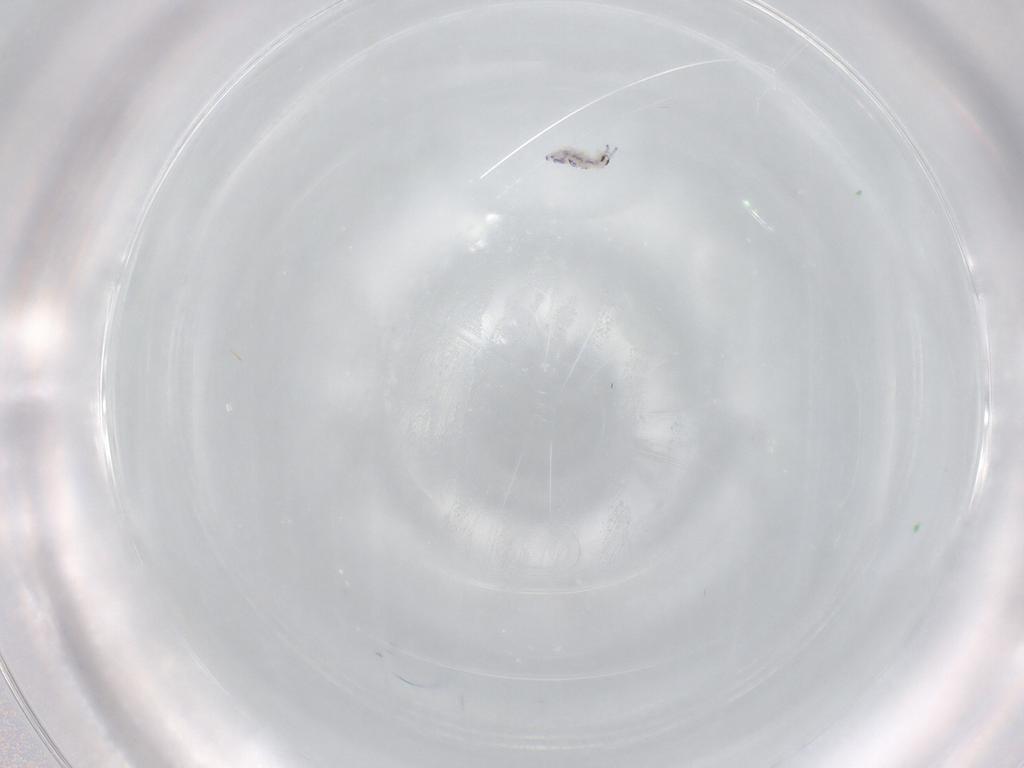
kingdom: Animalia
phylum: Arthropoda
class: Collembola
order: Entomobryomorpha
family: Entomobryidae
